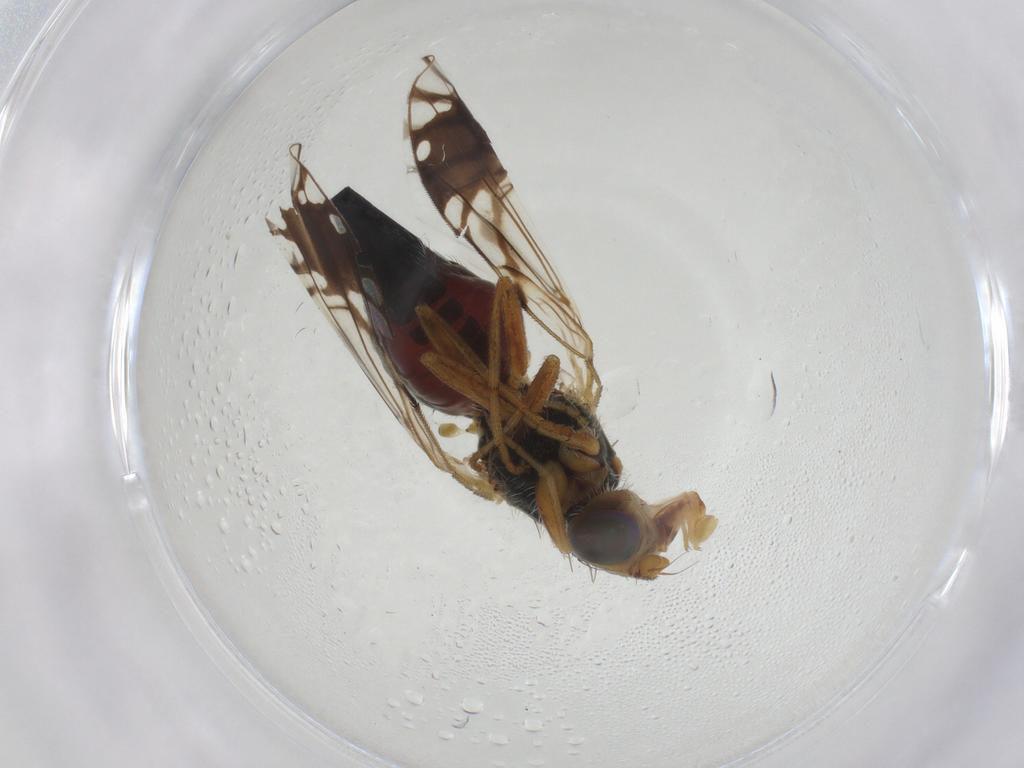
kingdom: Animalia
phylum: Arthropoda
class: Insecta
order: Diptera
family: Tephritidae
